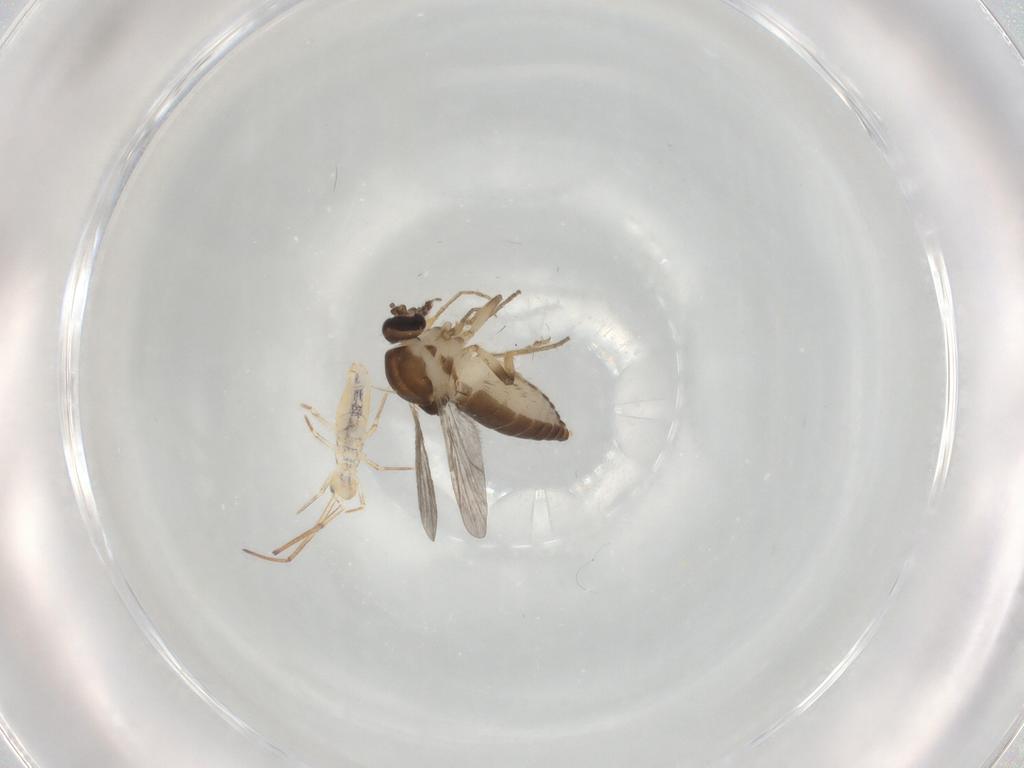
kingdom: Animalia
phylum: Arthropoda
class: Insecta
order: Diptera
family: Ceratopogonidae
